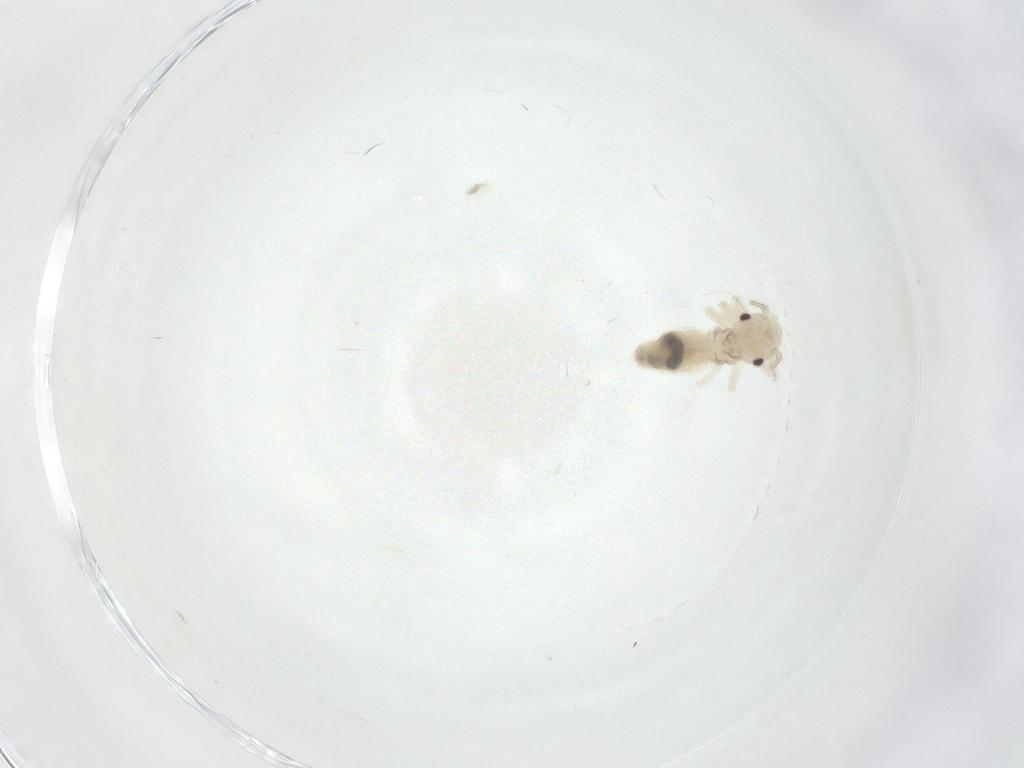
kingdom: Animalia
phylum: Arthropoda
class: Insecta
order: Psocodea
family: Amphipsocidae
